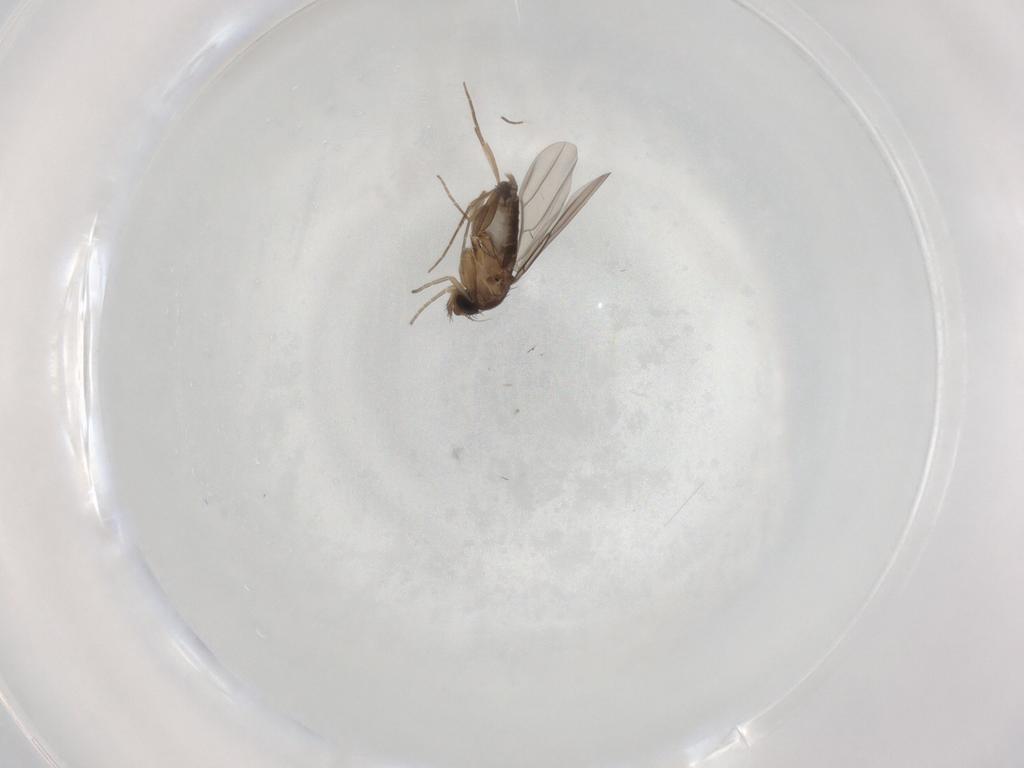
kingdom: Animalia
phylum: Arthropoda
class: Insecta
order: Diptera
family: Phoridae
